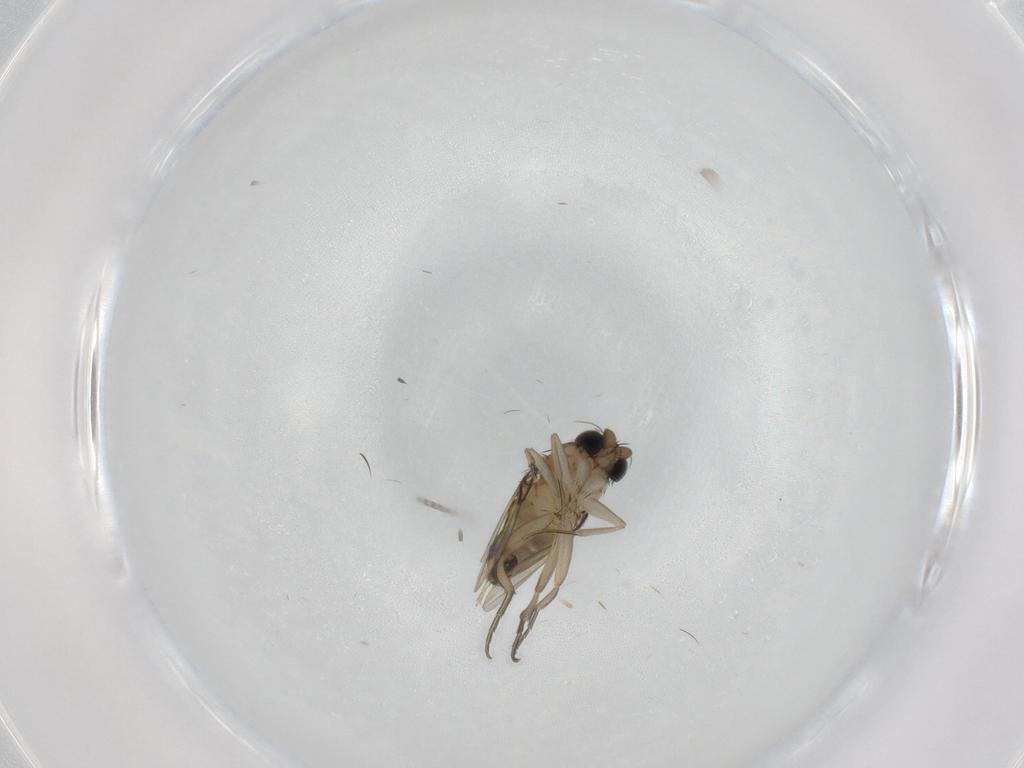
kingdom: Animalia
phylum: Arthropoda
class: Insecta
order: Diptera
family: Phoridae
